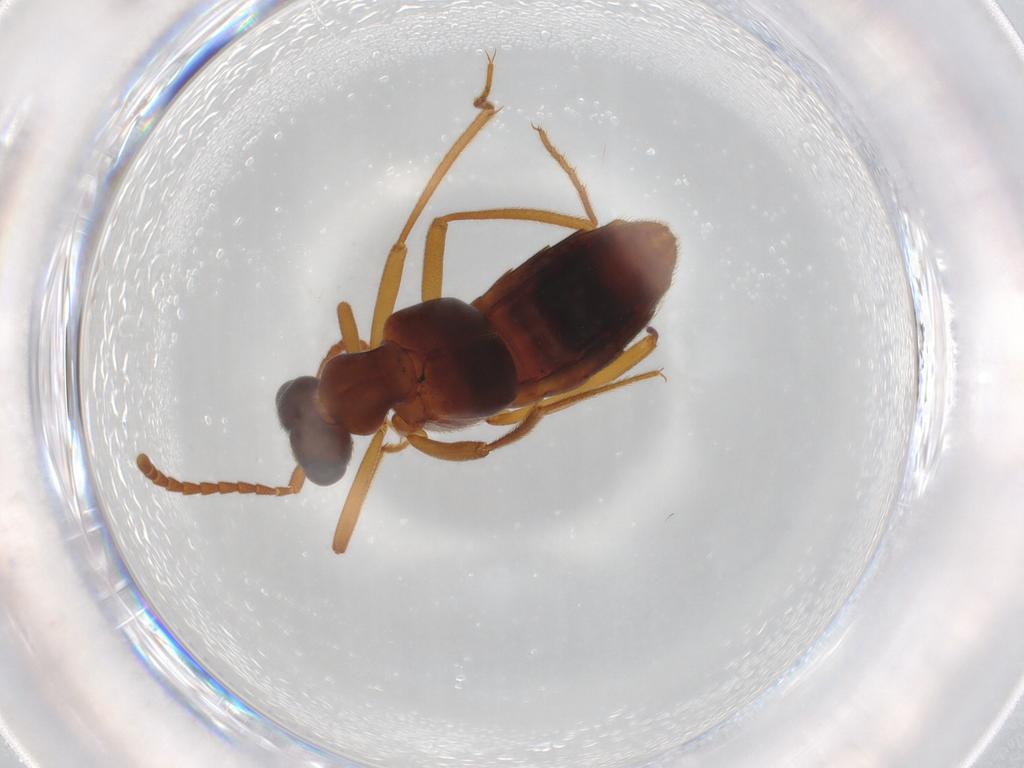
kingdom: Animalia
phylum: Arthropoda
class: Insecta
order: Coleoptera
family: Staphylinidae
